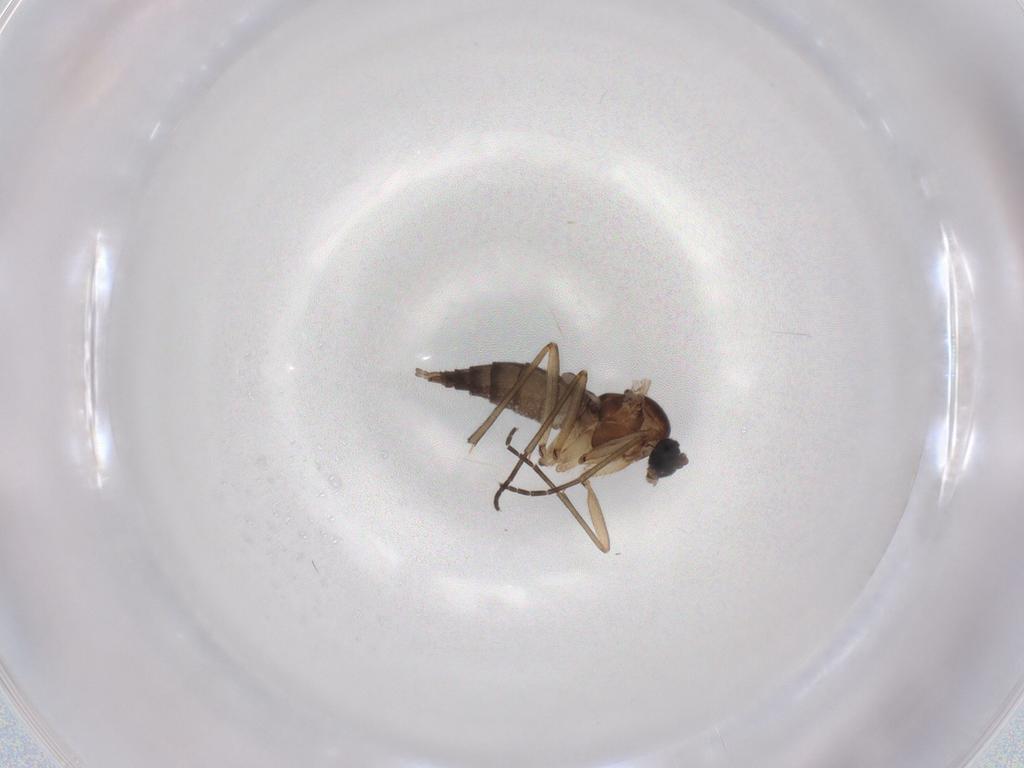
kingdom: Animalia
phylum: Arthropoda
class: Insecta
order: Diptera
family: Sciaridae
